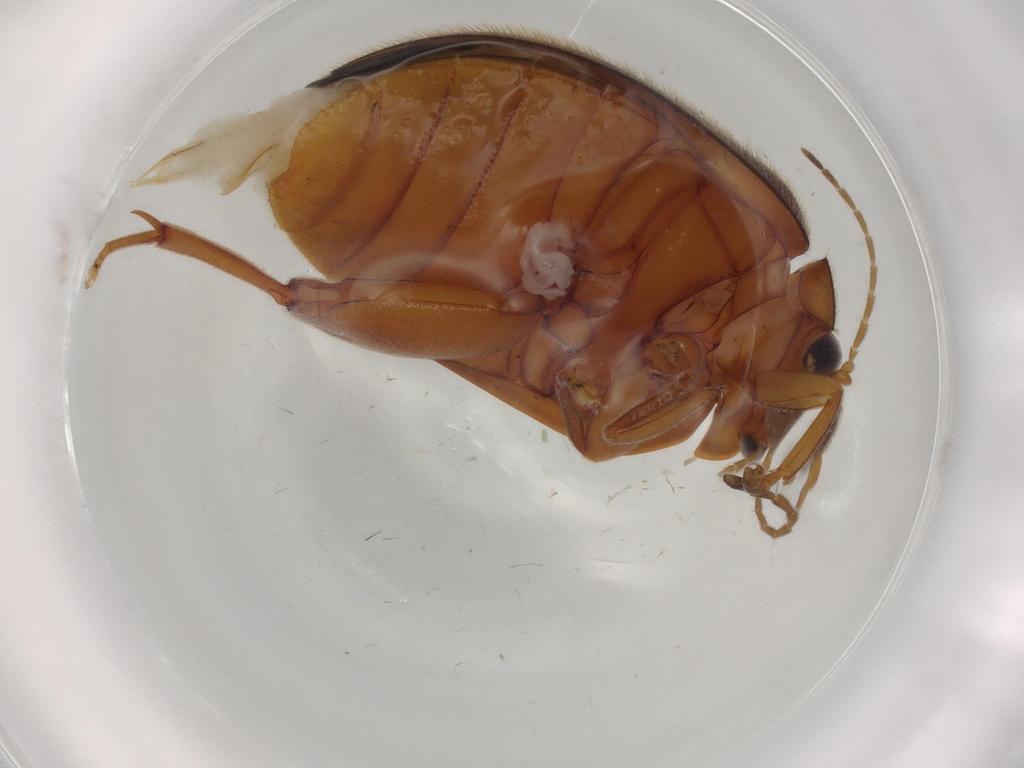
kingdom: Animalia
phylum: Arthropoda
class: Insecta
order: Coleoptera
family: Scirtidae
